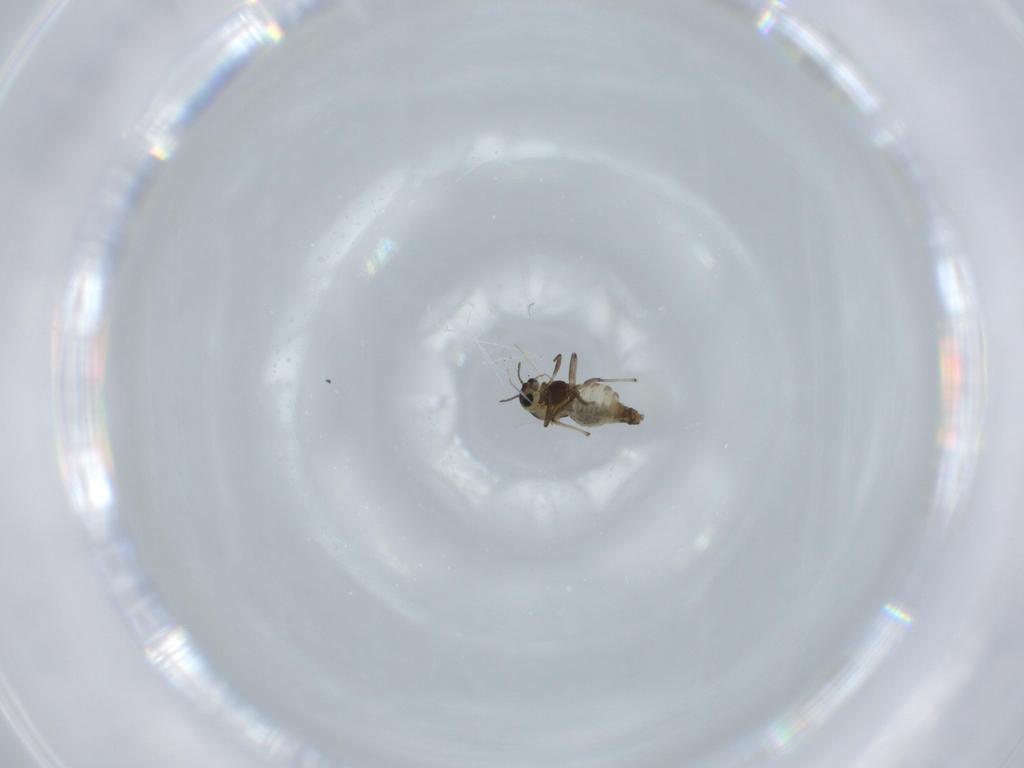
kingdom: Animalia
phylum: Arthropoda
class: Insecta
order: Diptera
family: Chironomidae
